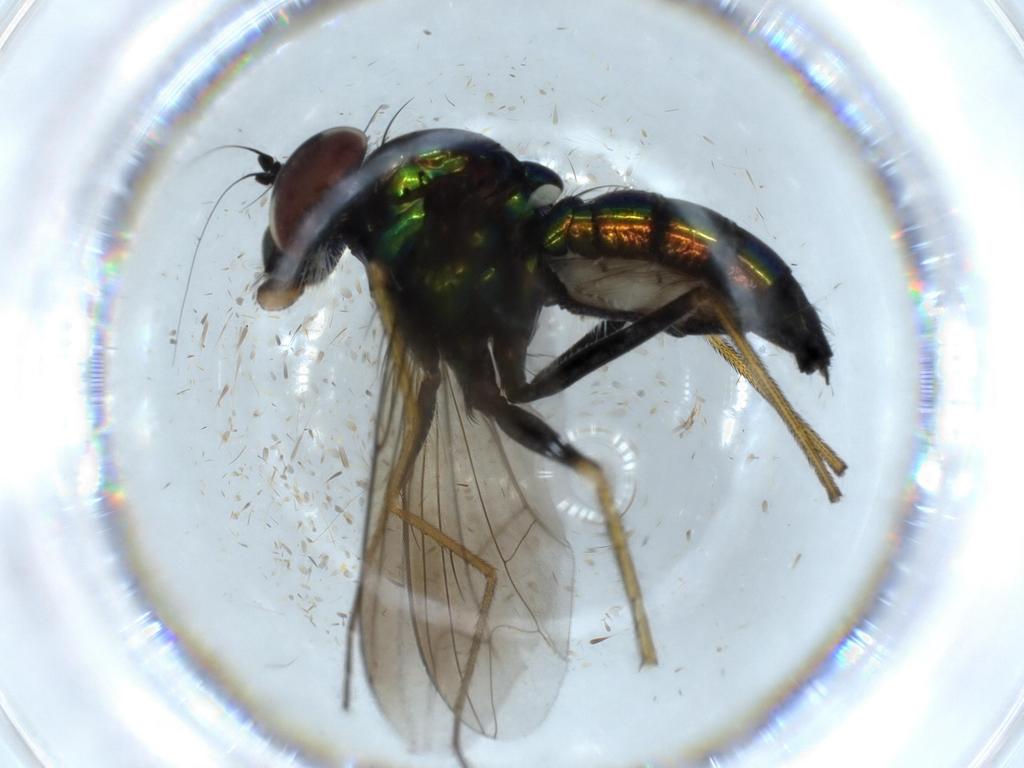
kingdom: Animalia
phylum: Arthropoda
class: Insecta
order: Diptera
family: Dolichopodidae
